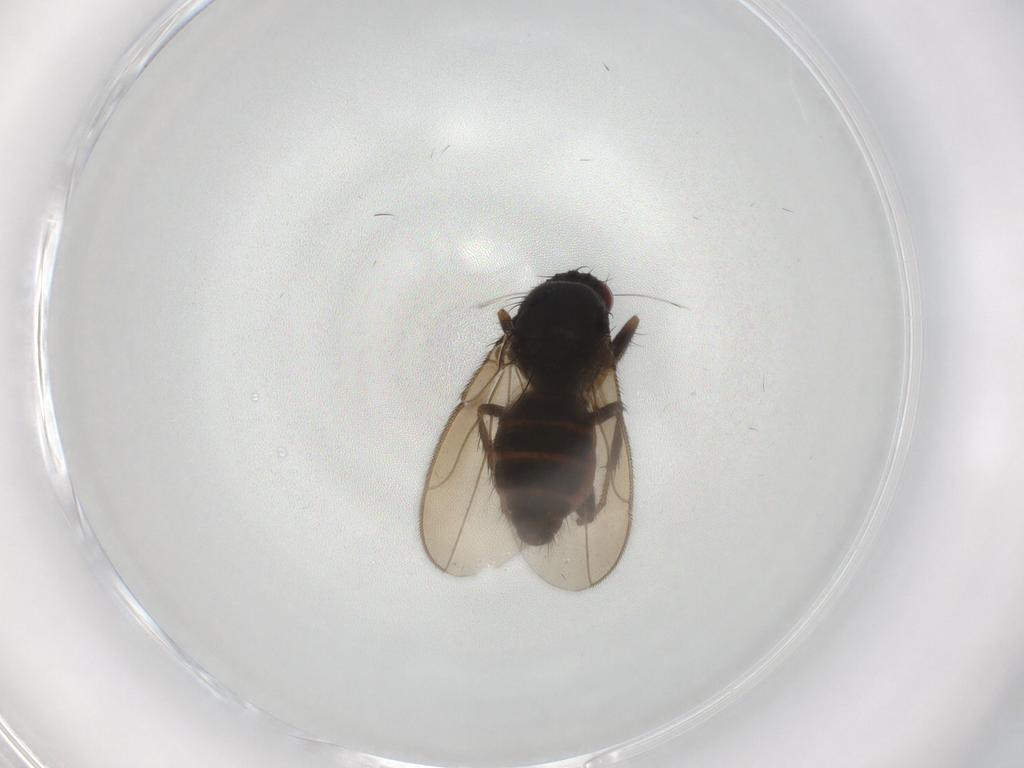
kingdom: Animalia
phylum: Arthropoda
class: Insecta
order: Diptera
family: Sphaeroceridae
